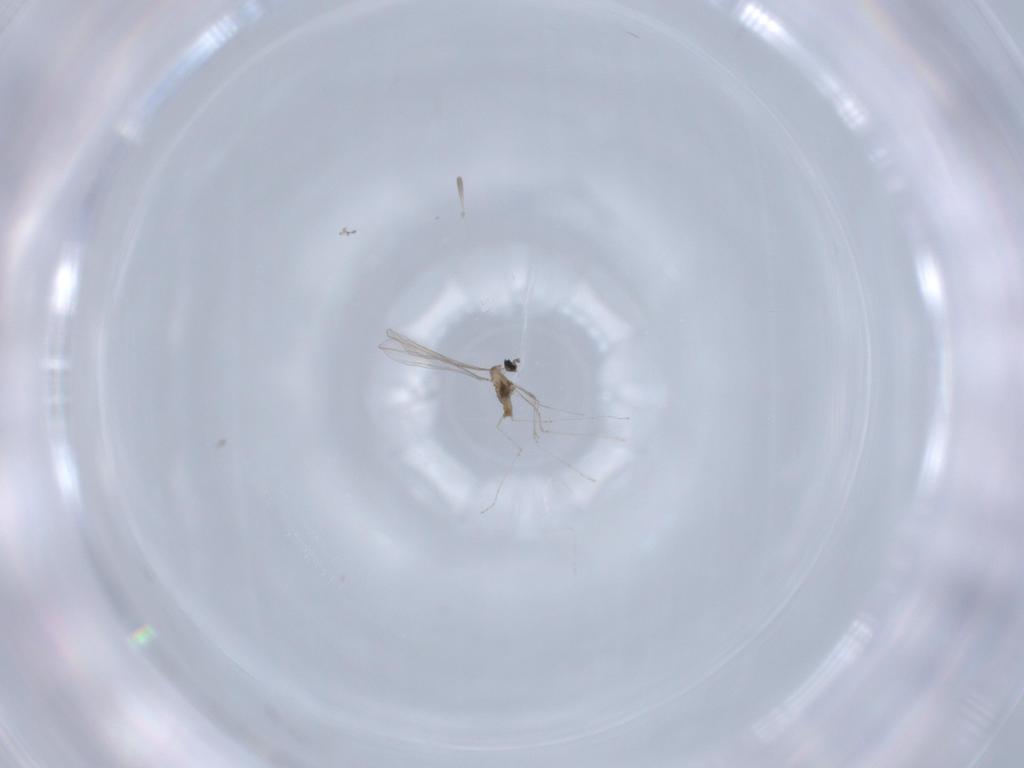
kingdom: Animalia
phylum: Arthropoda
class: Insecta
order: Diptera
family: Cecidomyiidae
